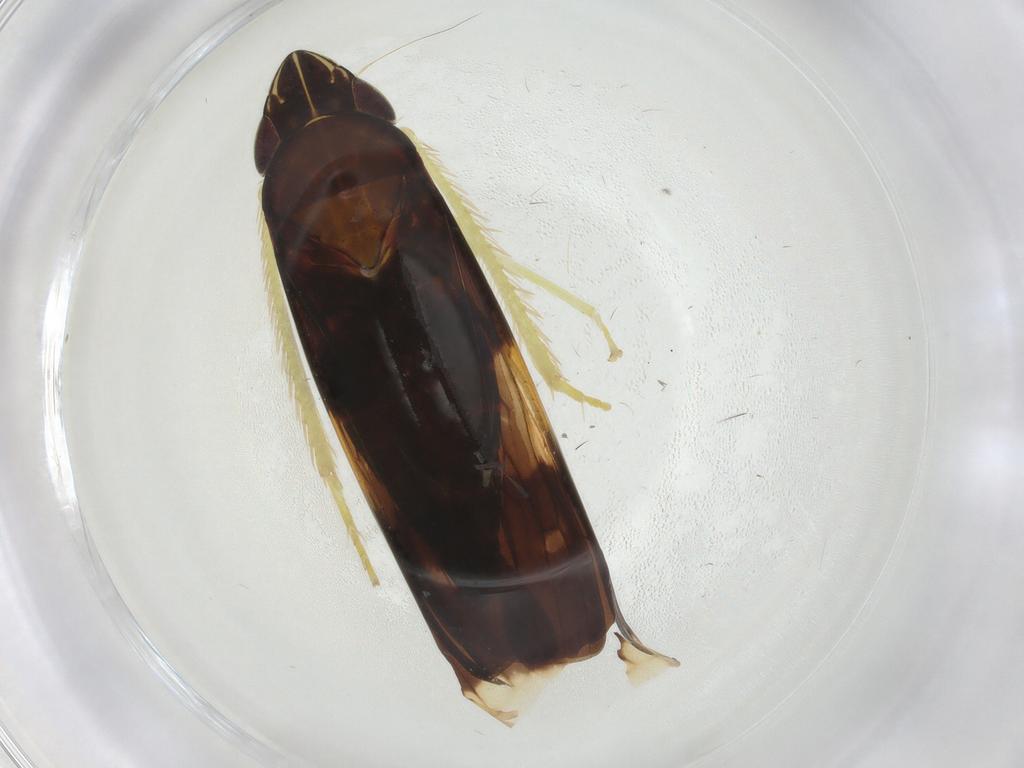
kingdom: Animalia
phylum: Arthropoda
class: Insecta
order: Hemiptera
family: Cicadellidae
